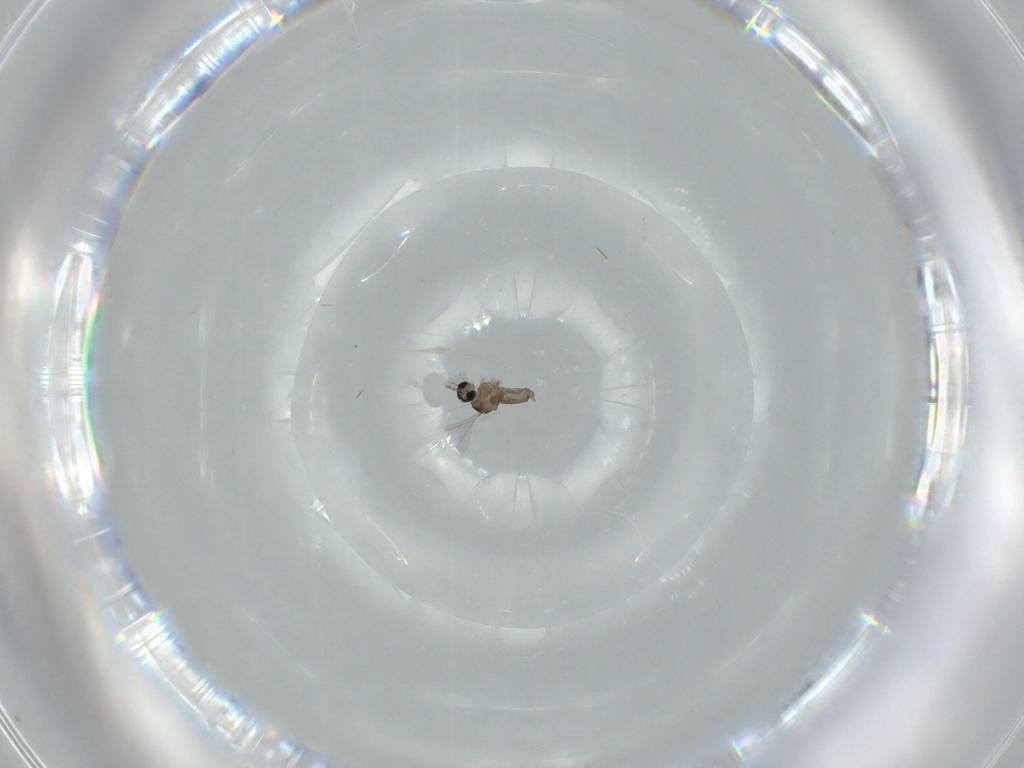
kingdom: Animalia
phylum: Arthropoda
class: Insecta
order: Diptera
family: Cecidomyiidae
